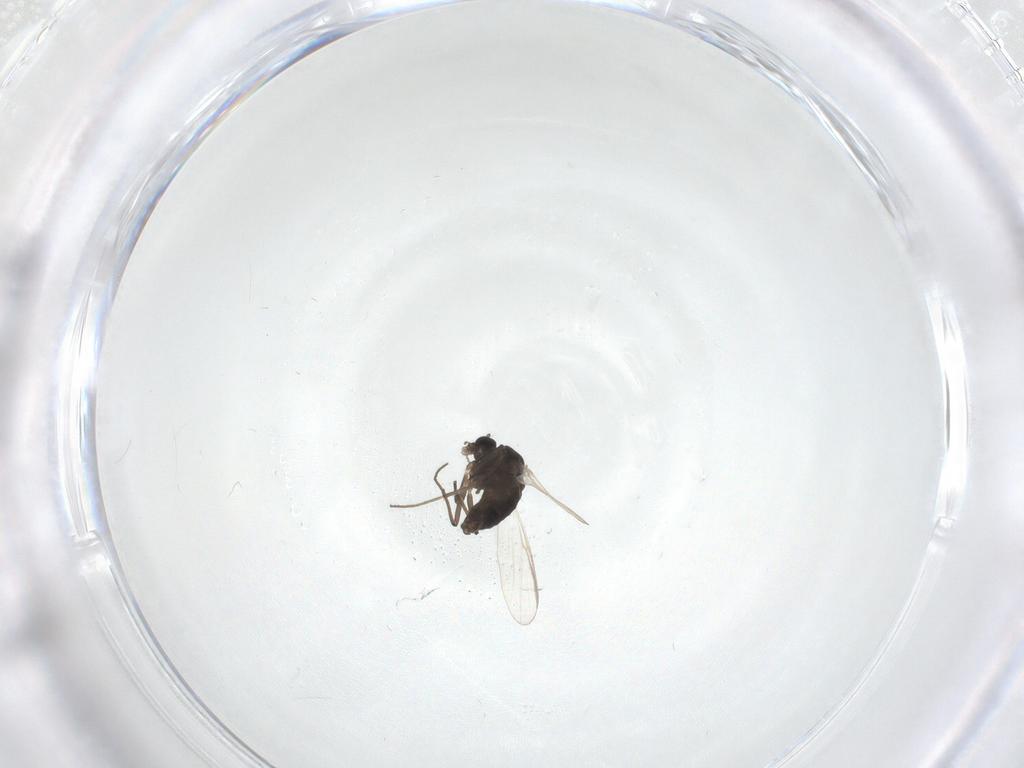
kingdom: Animalia
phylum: Arthropoda
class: Insecta
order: Diptera
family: Chironomidae
